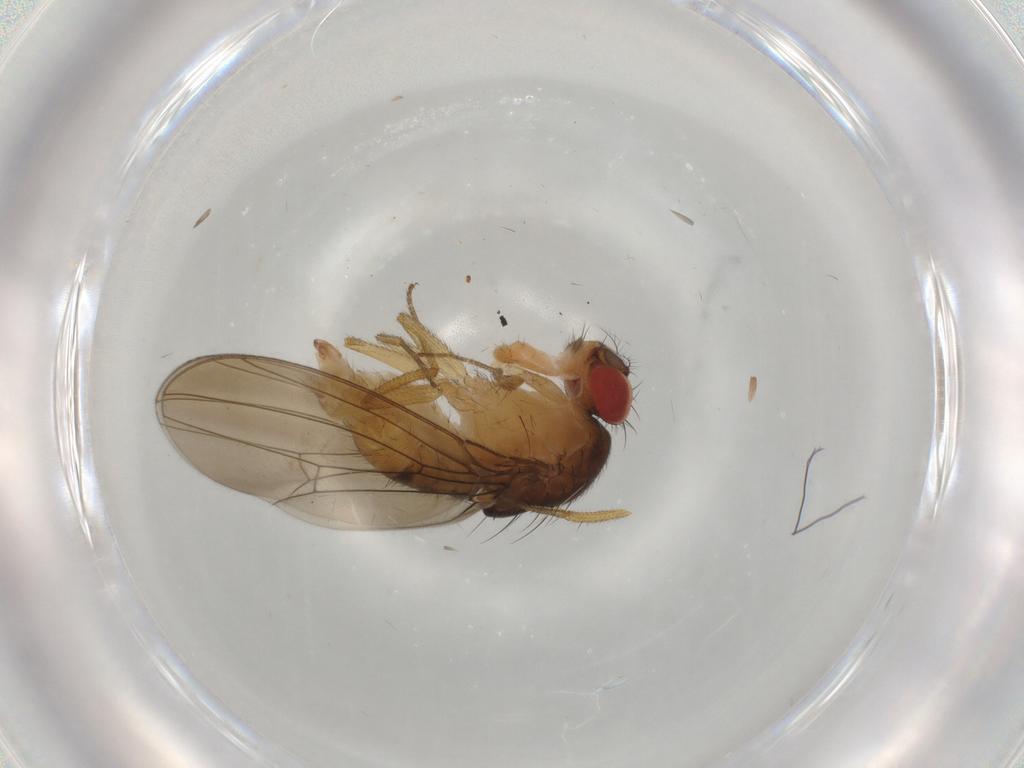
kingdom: Animalia
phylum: Arthropoda
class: Insecta
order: Diptera
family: Drosophilidae
